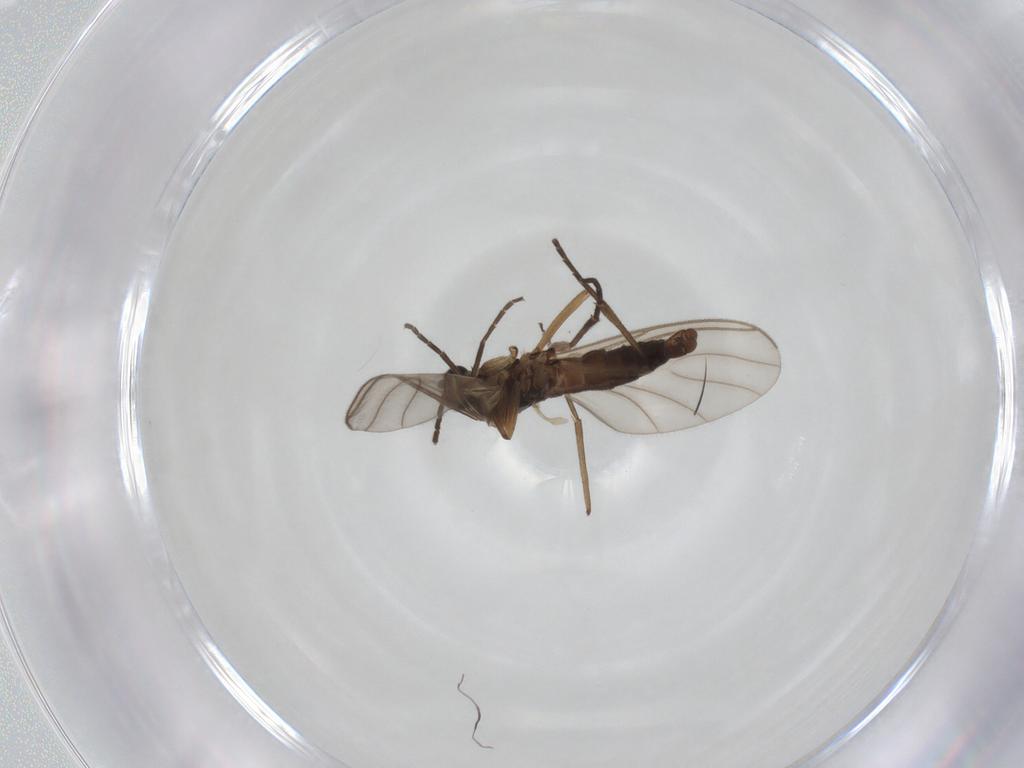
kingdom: Animalia
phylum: Arthropoda
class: Insecta
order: Diptera
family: Sciaridae
